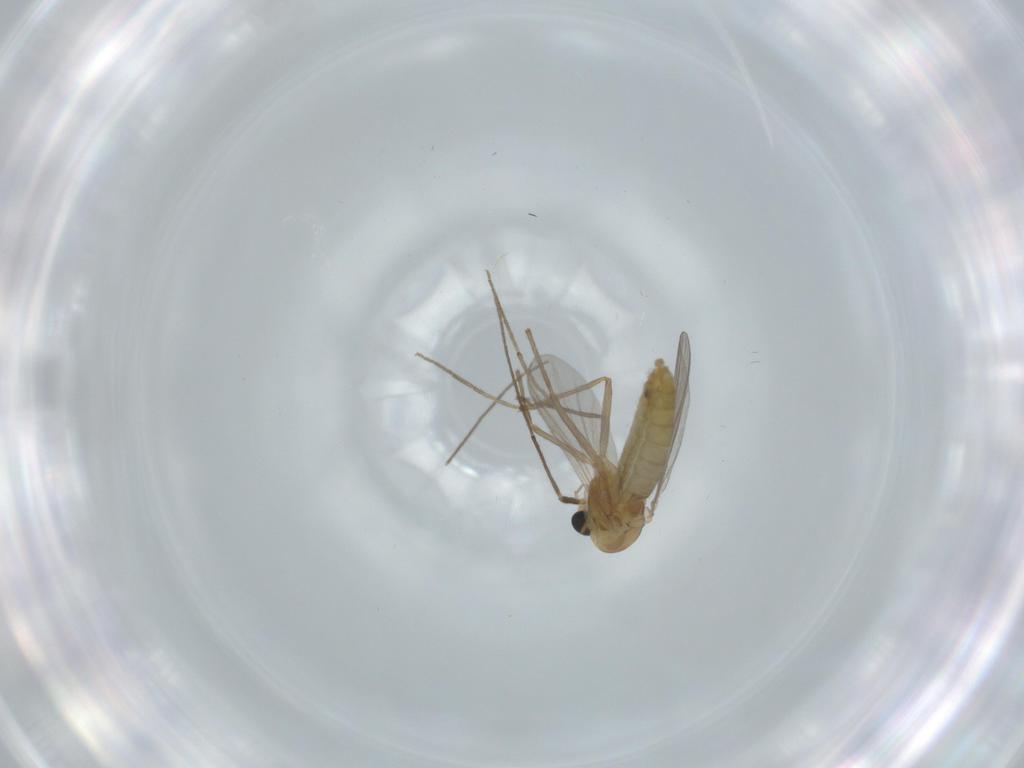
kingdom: Animalia
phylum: Arthropoda
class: Insecta
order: Diptera
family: Chironomidae
